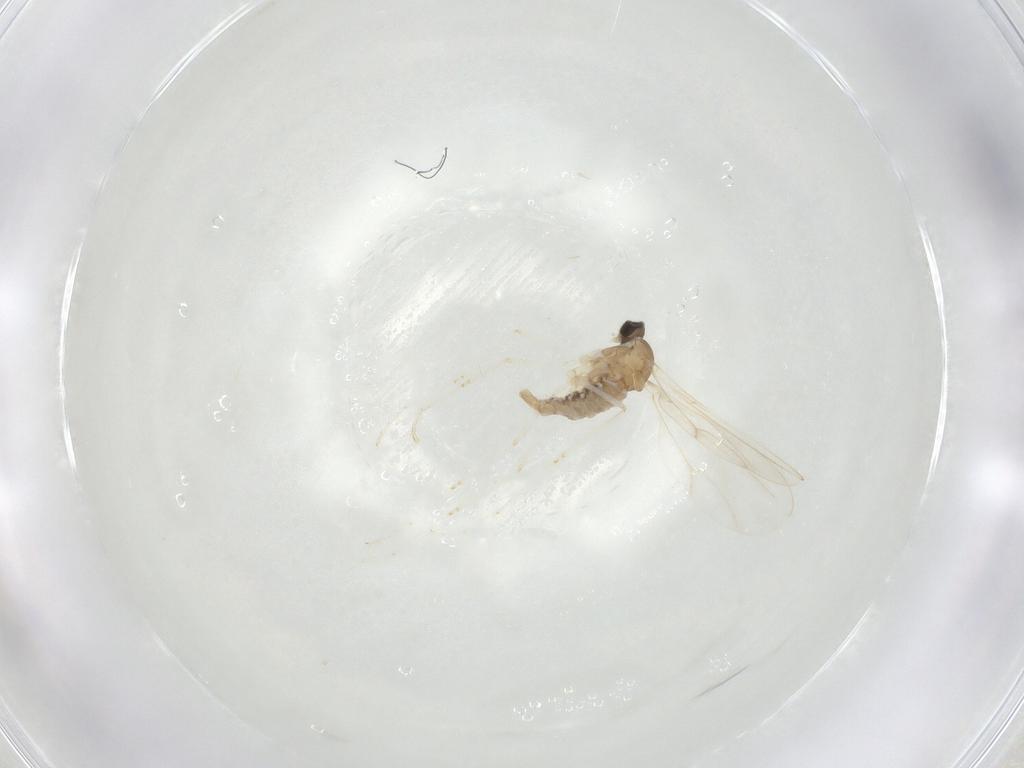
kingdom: Animalia
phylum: Arthropoda
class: Insecta
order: Diptera
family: Cecidomyiidae
